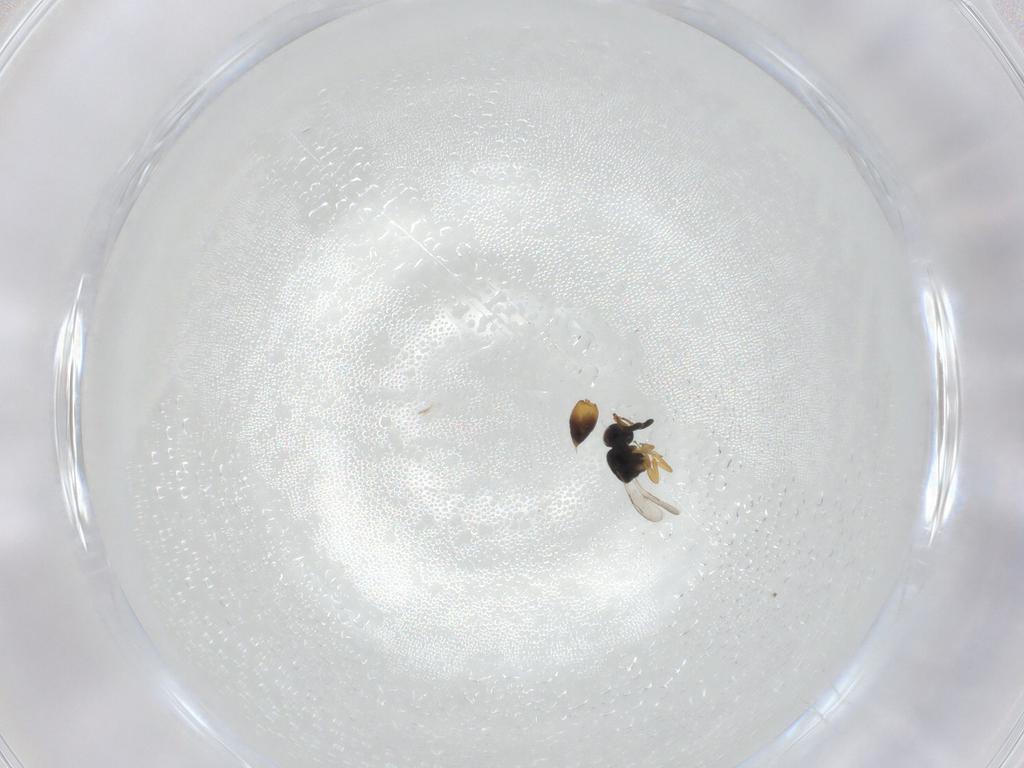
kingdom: Animalia
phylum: Arthropoda
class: Insecta
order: Hymenoptera
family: Ceraphronidae
